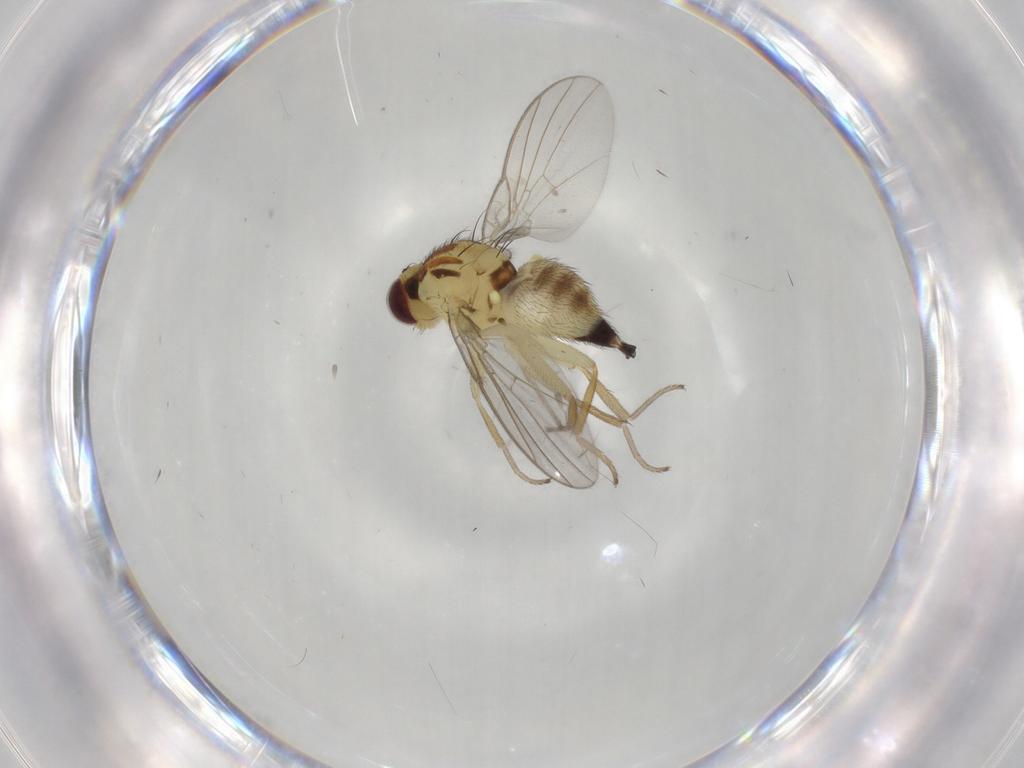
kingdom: Animalia
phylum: Arthropoda
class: Insecta
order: Diptera
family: Agromyzidae
